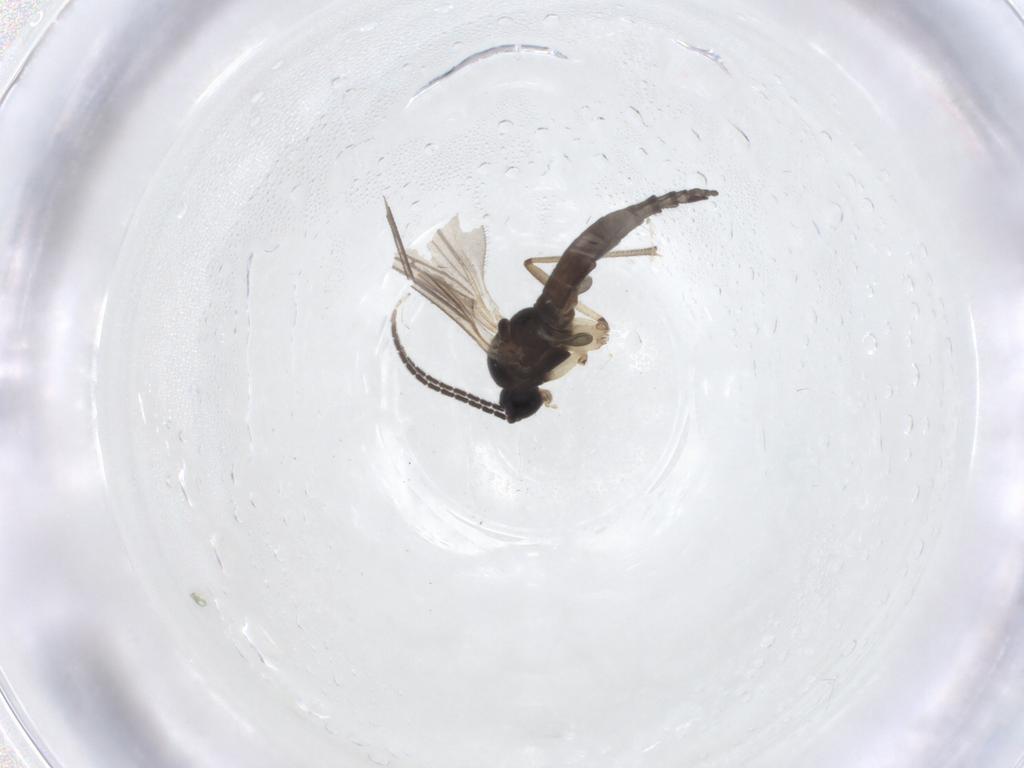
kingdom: Animalia
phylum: Arthropoda
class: Insecta
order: Diptera
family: Sciaridae
